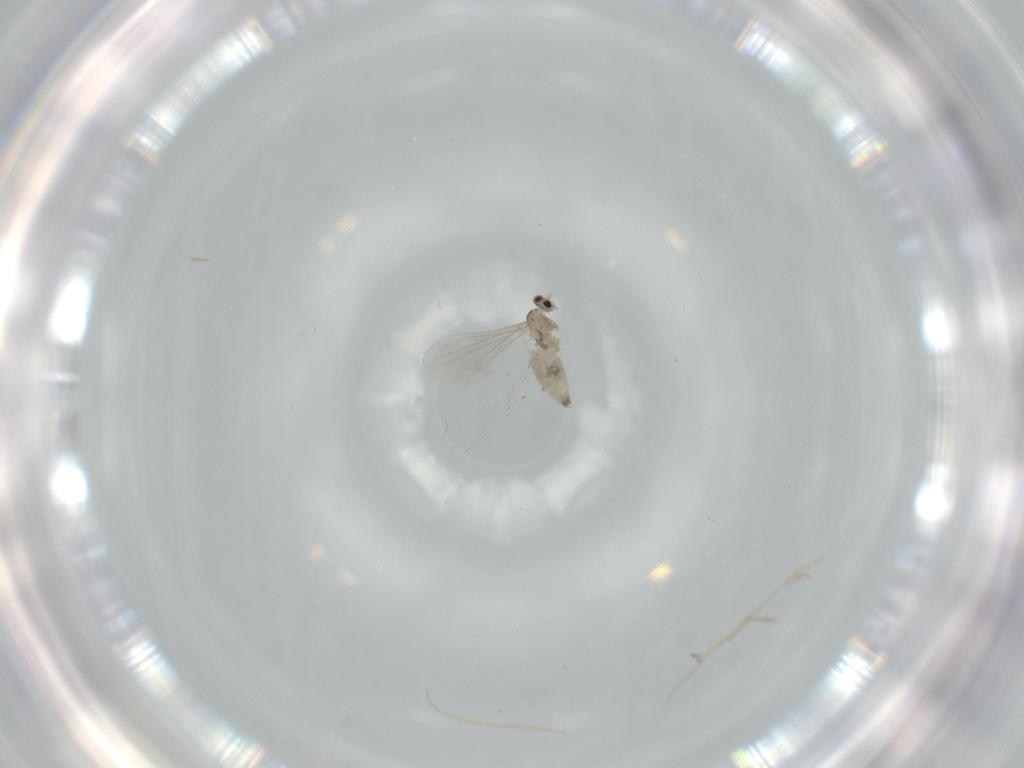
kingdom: Animalia
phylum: Arthropoda
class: Insecta
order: Diptera
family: Cecidomyiidae
